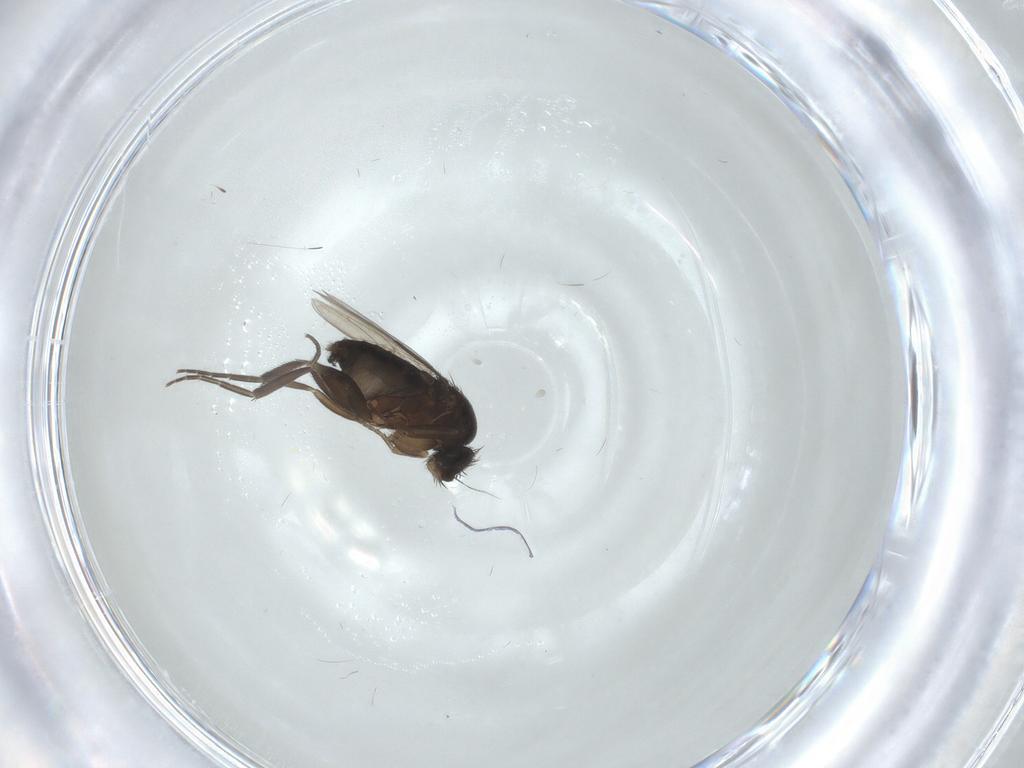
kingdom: Animalia
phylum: Arthropoda
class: Insecta
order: Diptera
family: Phoridae
